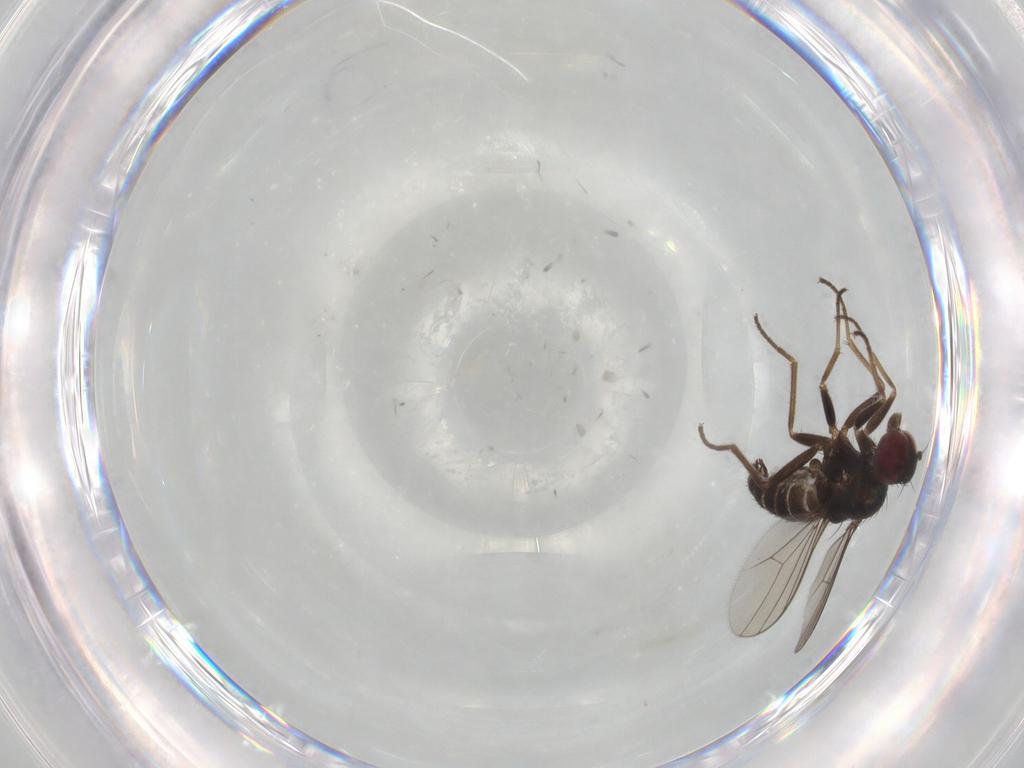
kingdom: Animalia
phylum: Arthropoda
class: Insecta
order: Diptera
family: Dolichopodidae
